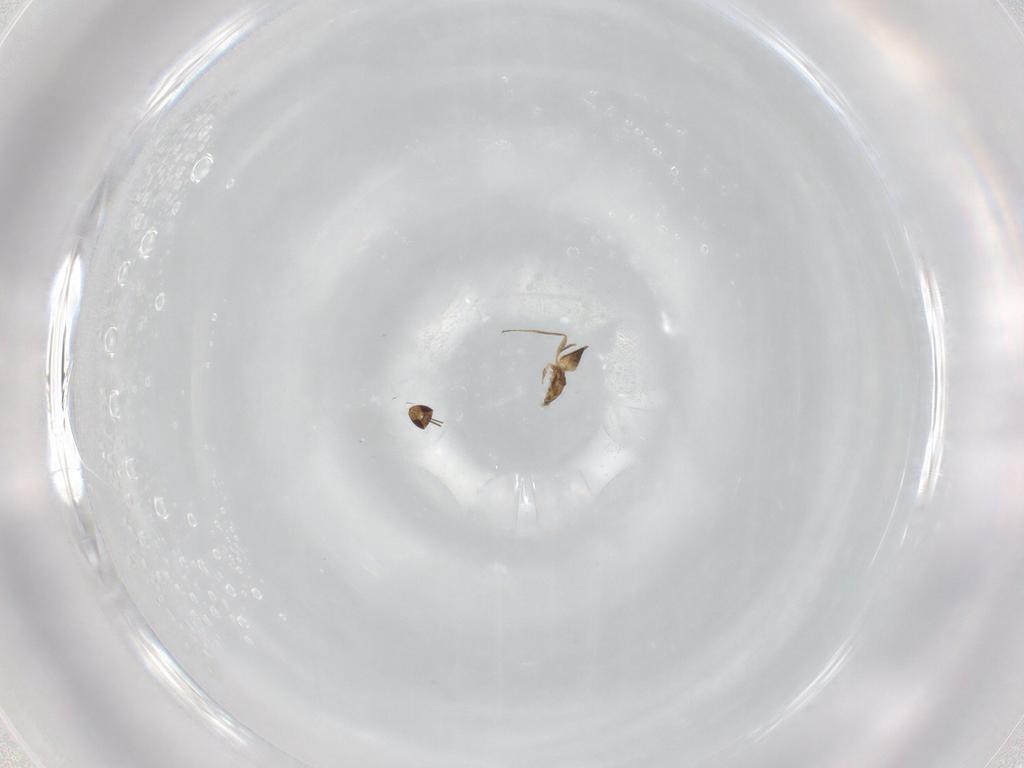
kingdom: Animalia
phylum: Arthropoda
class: Insecta
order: Hymenoptera
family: Mymaridae
